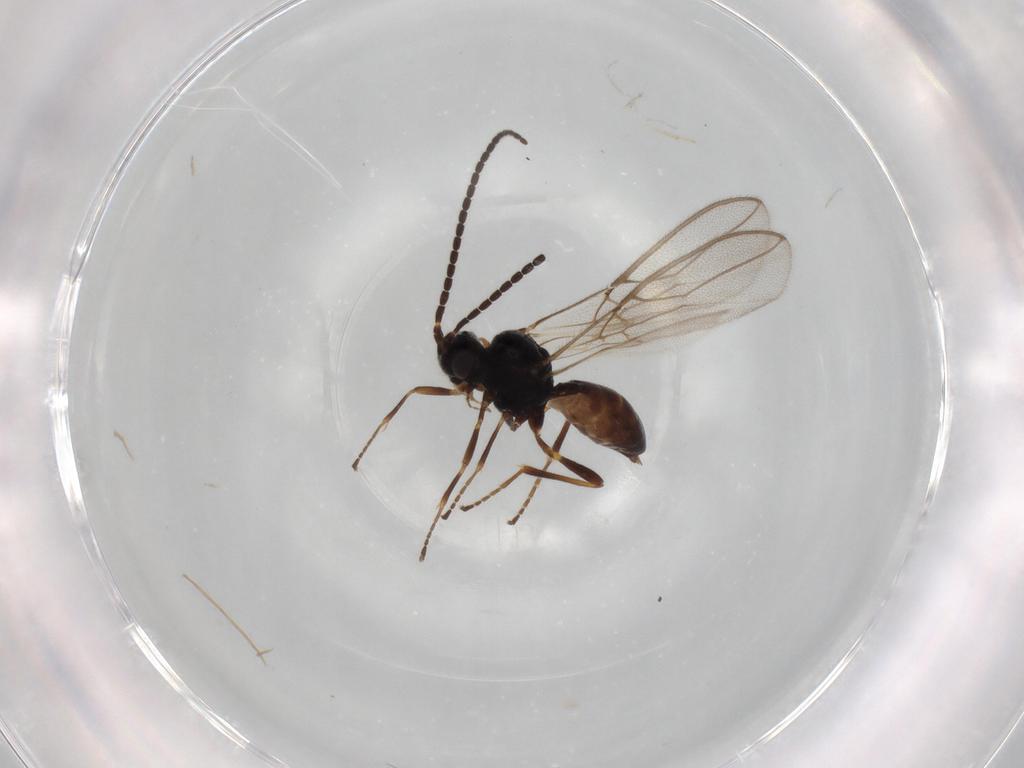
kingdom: Animalia
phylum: Arthropoda
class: Insecta
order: Hymenoptera
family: Braconidae
